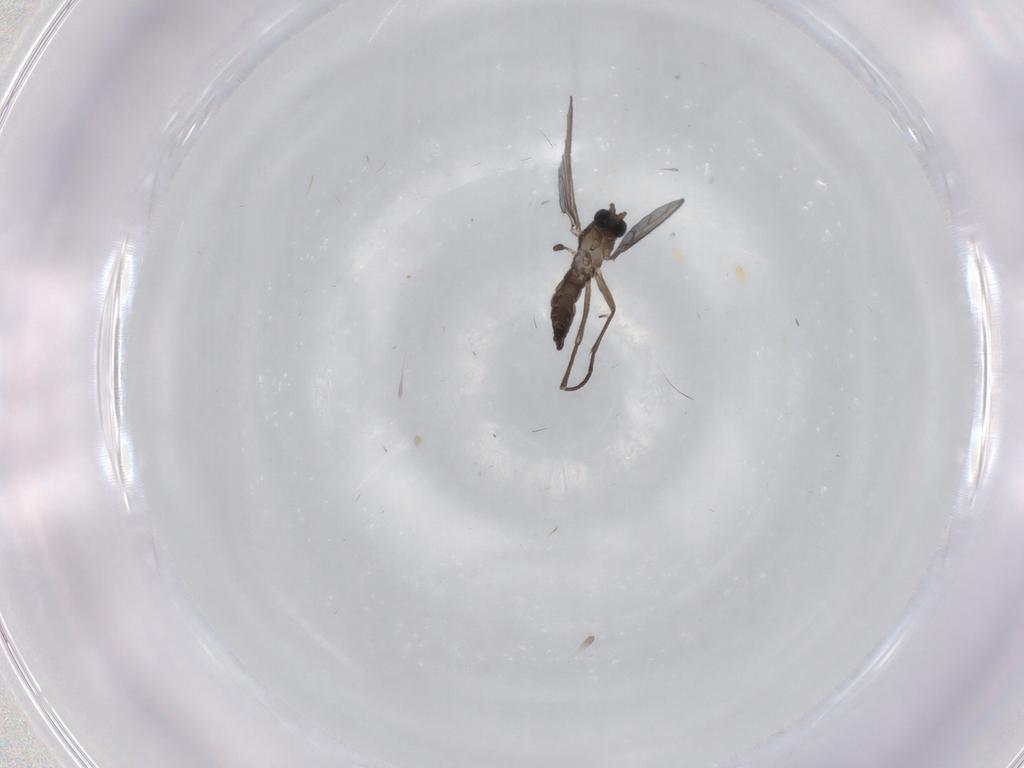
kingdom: Animalia
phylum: Arthropoda
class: Insecta
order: Diptera
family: Sciaridae
